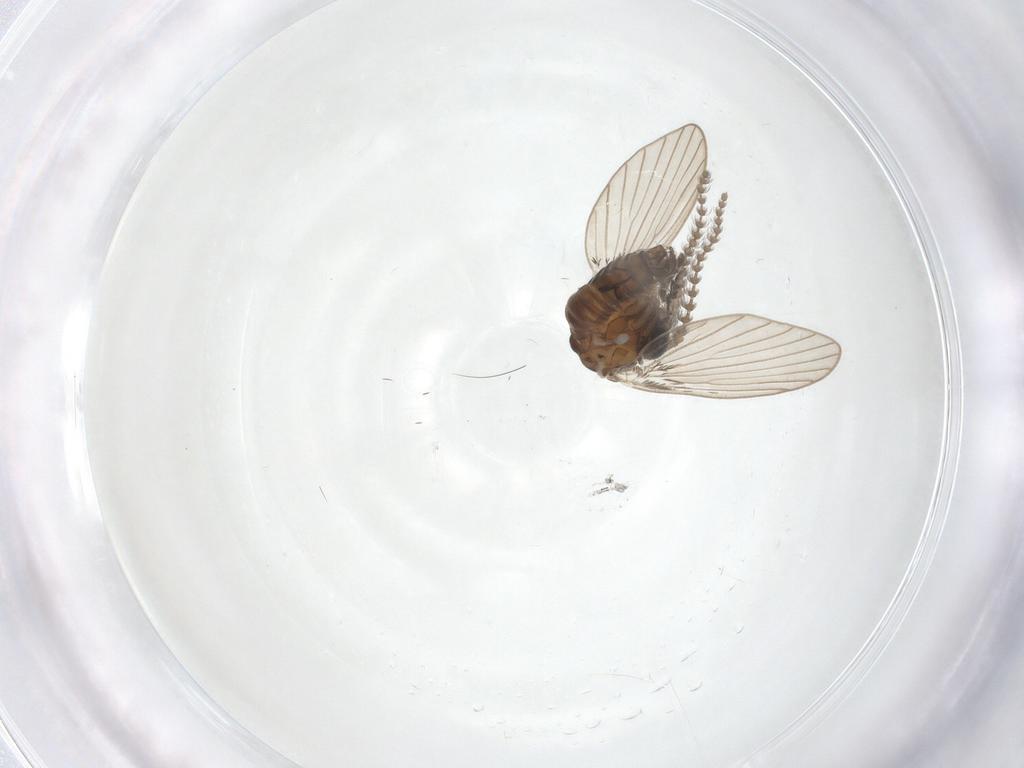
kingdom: Animalia
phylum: Arthropoda
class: Insecta
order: Diptera
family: Psychodidae
